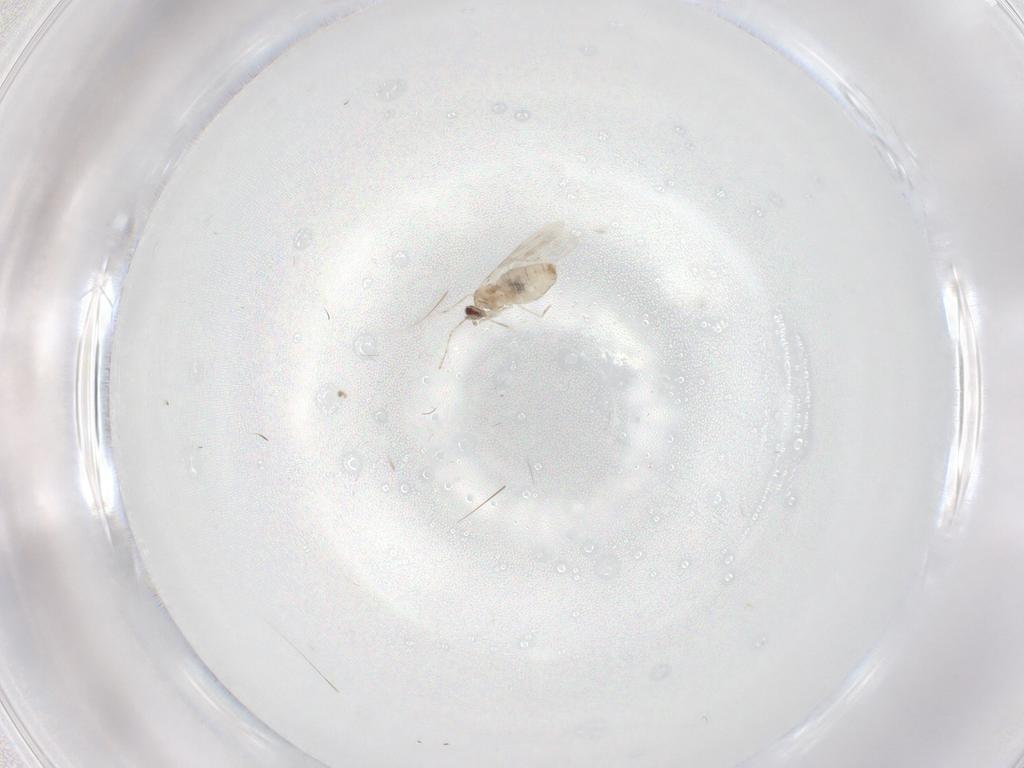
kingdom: Animalia
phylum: Arthropoda
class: Insecta
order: Diptera
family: Cecidomyiidae
